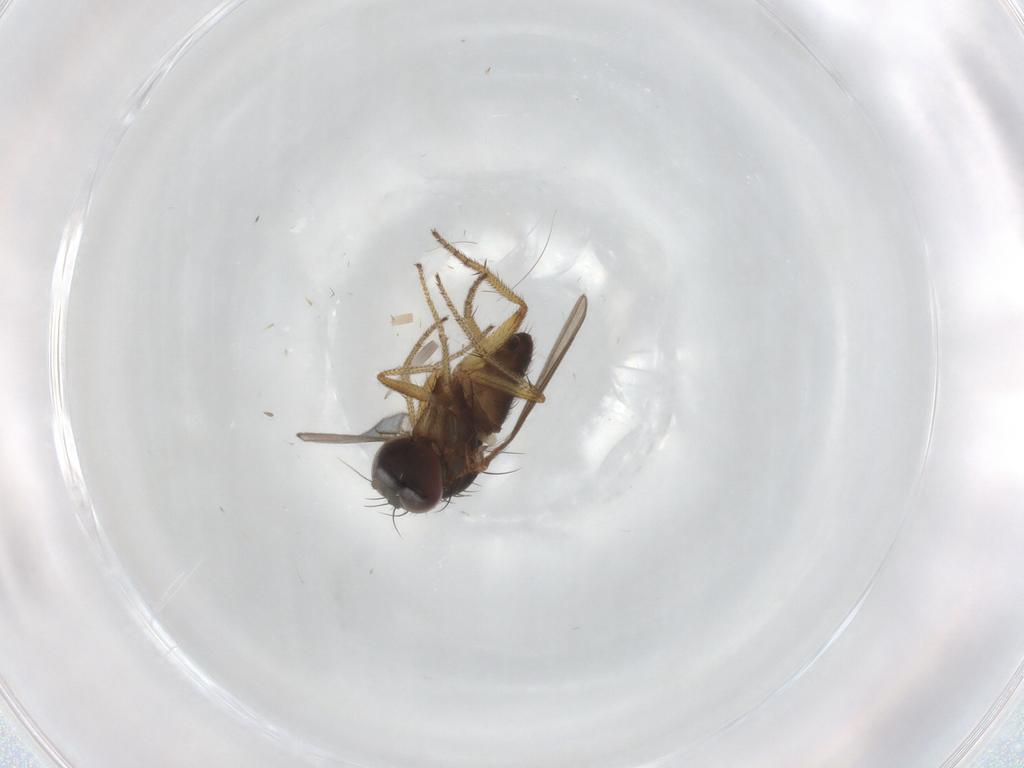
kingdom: Animalia
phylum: Arthropoda
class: Insecta
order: Diptera
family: Chironomidae
